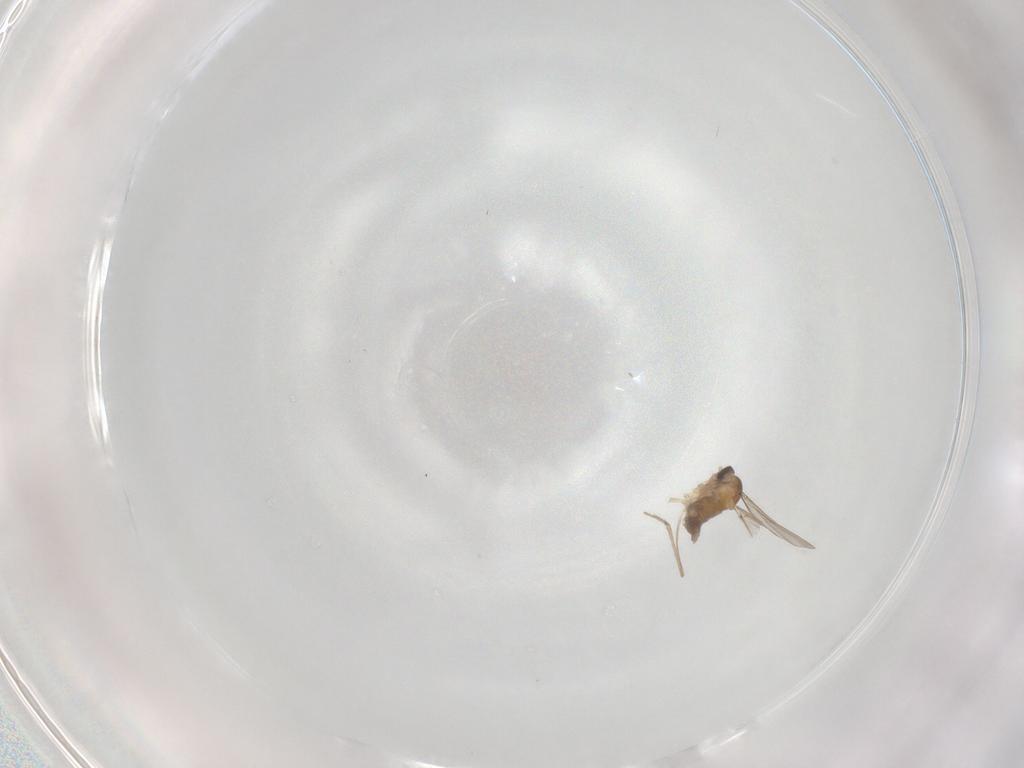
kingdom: Animalia
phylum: Arthropoda
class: Insecta
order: Diptera
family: Cecidomyiidae
